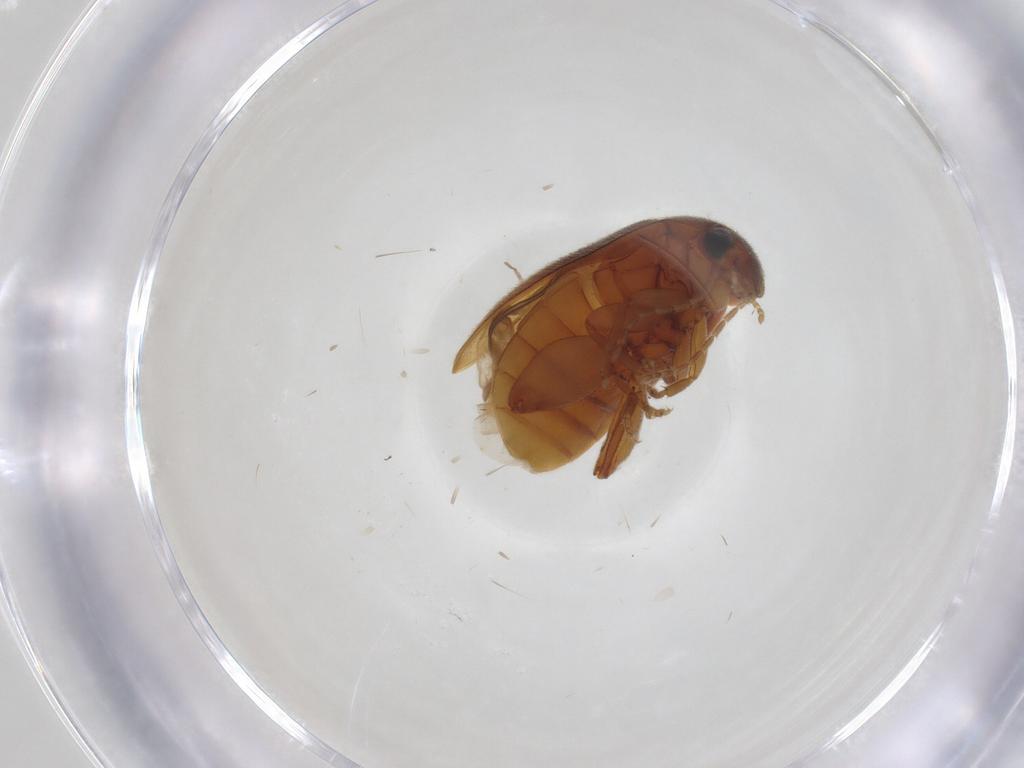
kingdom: Animalia
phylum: Arthropoda
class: Insecta
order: Coleoptera
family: Scirtidae
